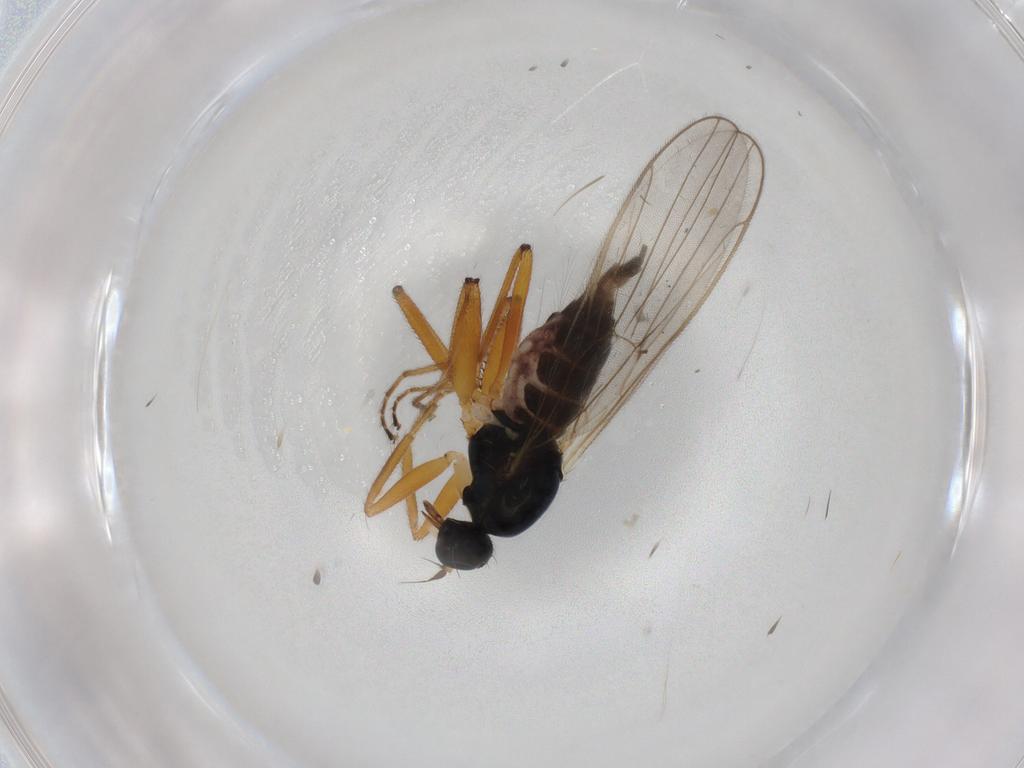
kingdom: Animalia
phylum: Arthropoda
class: Insecta
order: Diptera
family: Hybotidae
